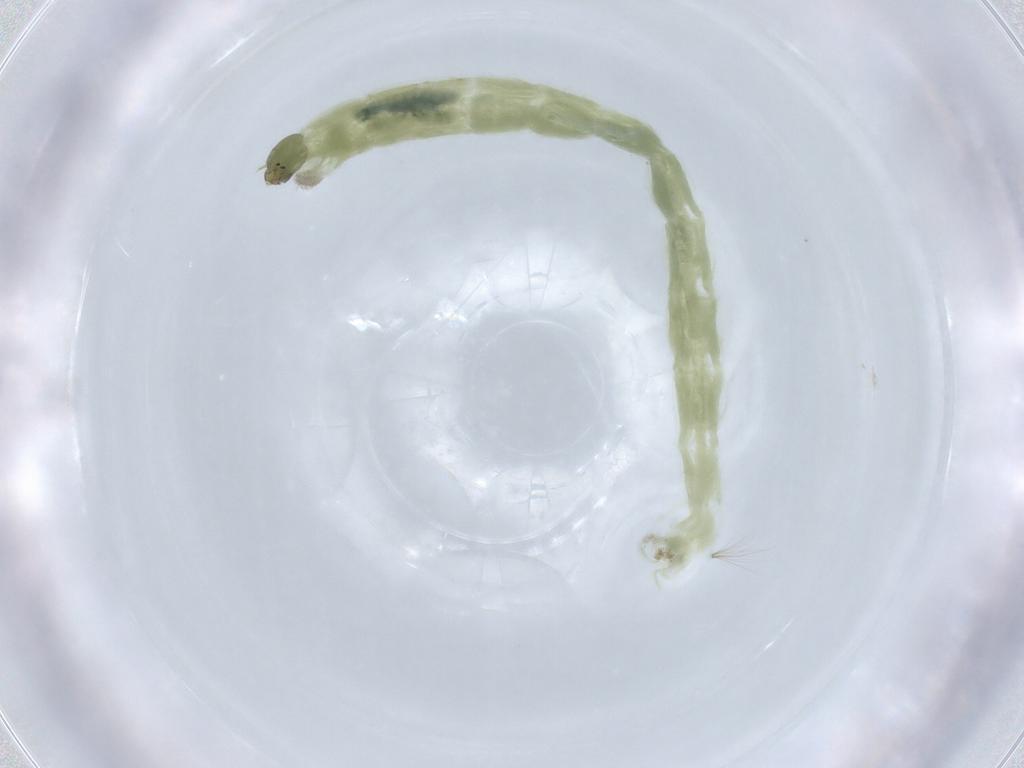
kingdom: Animalia
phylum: Arthropoda
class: Insecta
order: Diptera
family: Chironomidae
